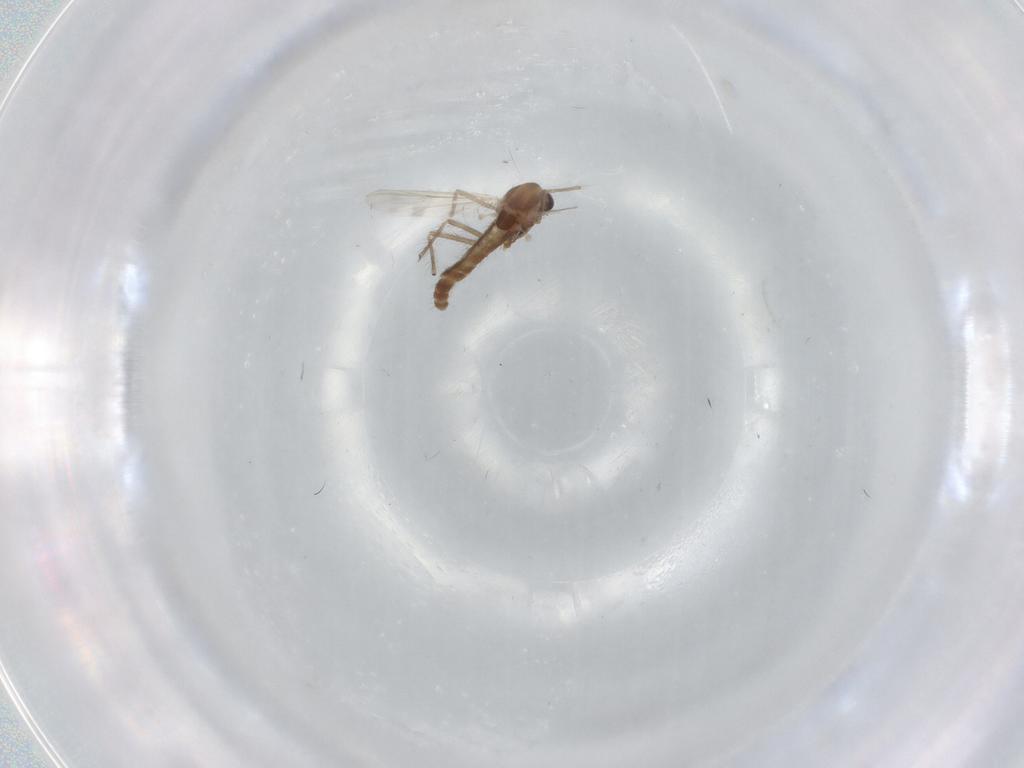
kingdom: Animalia
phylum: Arthropoda
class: Insecta
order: Diptera
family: Chironomidae
